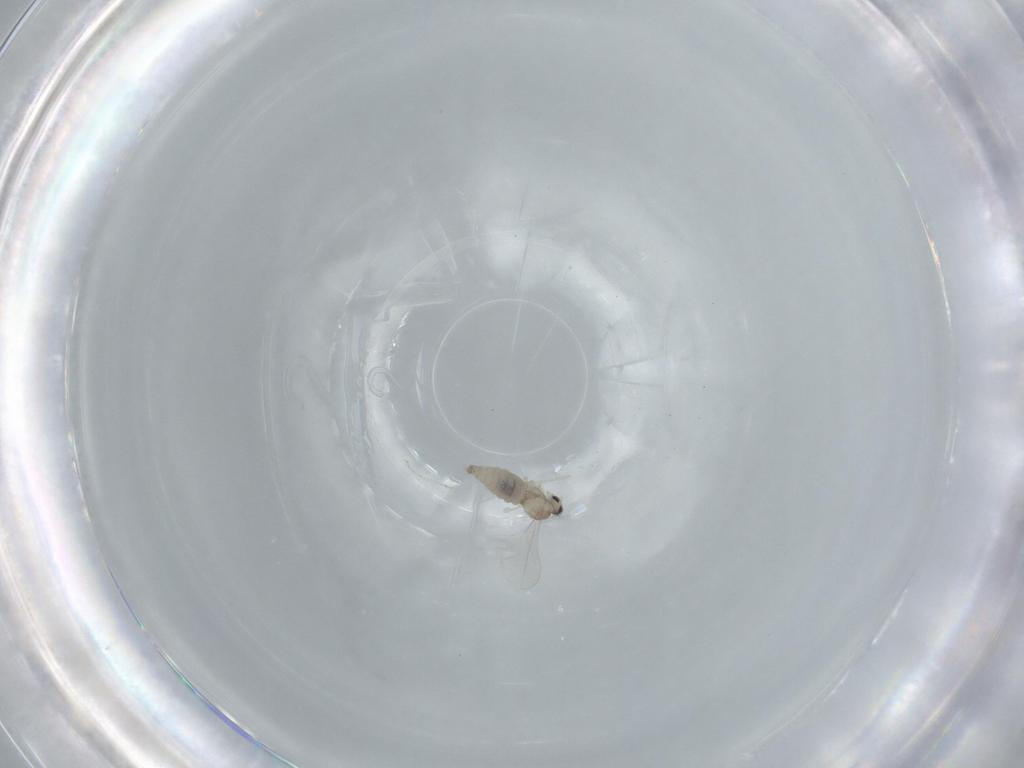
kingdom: Animalia
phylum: Arthropoda
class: Insecta
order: Diptera
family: Cecidomyiidae
